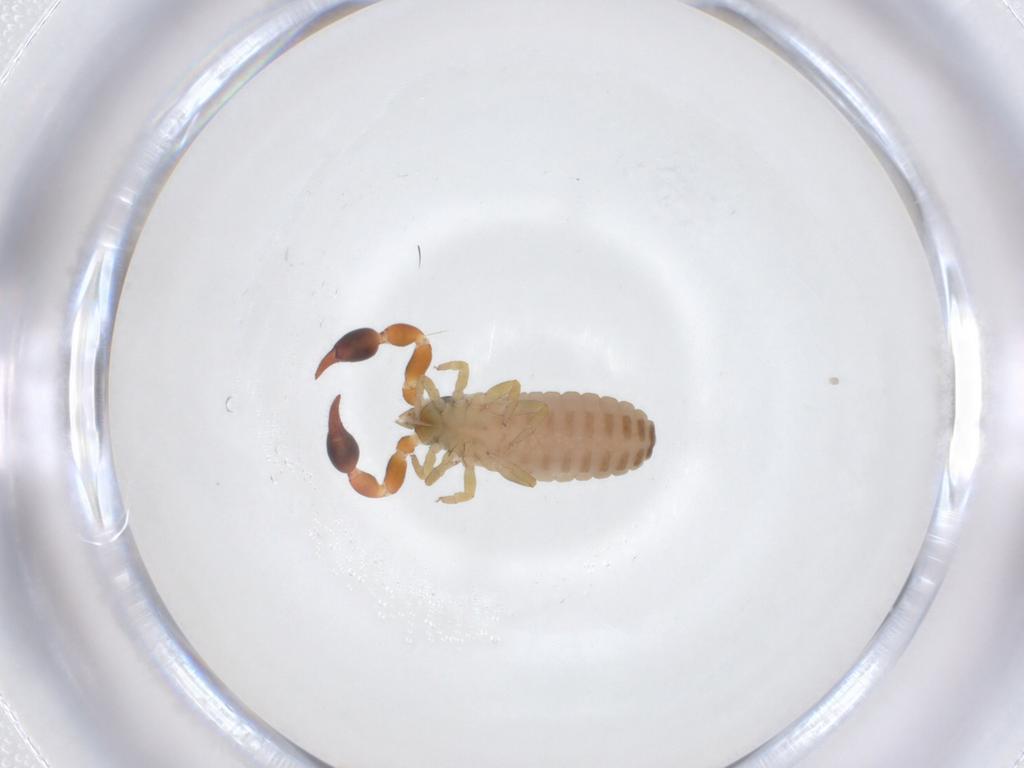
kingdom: Animalia
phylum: Arthropoda
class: Arachnida
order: Pseudoscorpiones
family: Chernetidae
